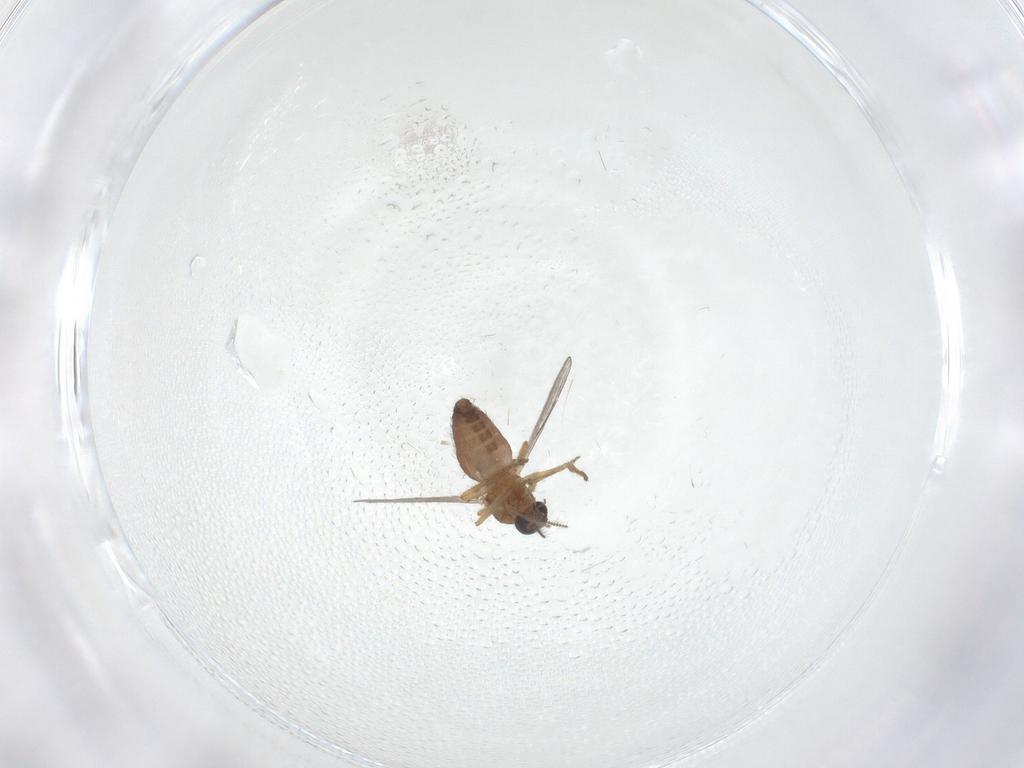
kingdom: Animalia
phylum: Arthropoda
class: Insecta
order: Diptera
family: Ceratopogonidae
